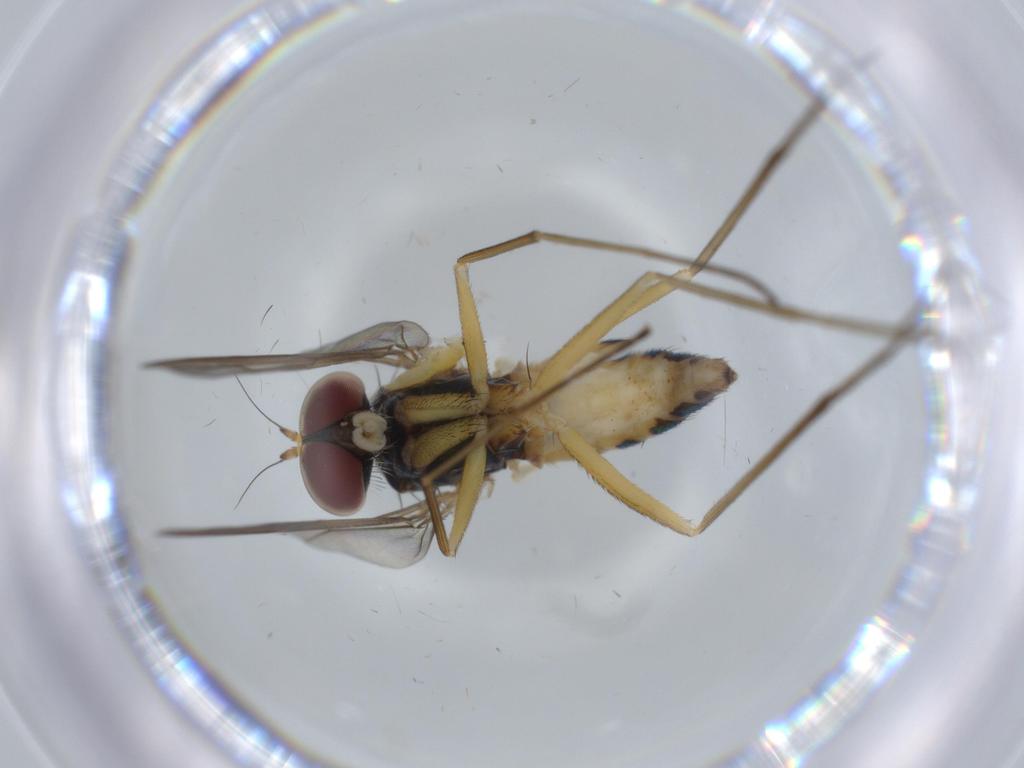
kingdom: Animalia
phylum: Arthropoda
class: Insecta
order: Diptera
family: Dolichopodidae
